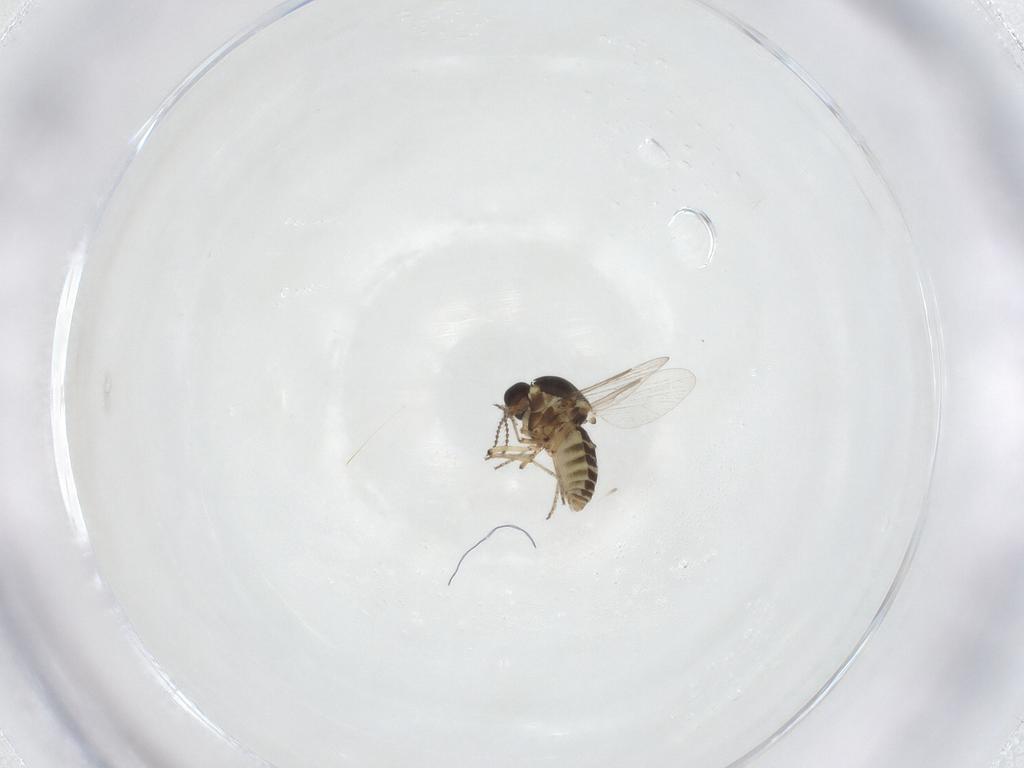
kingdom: Animalia
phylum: Arthropoda
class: Insecta
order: Diptera
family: Ceratopogonidae
